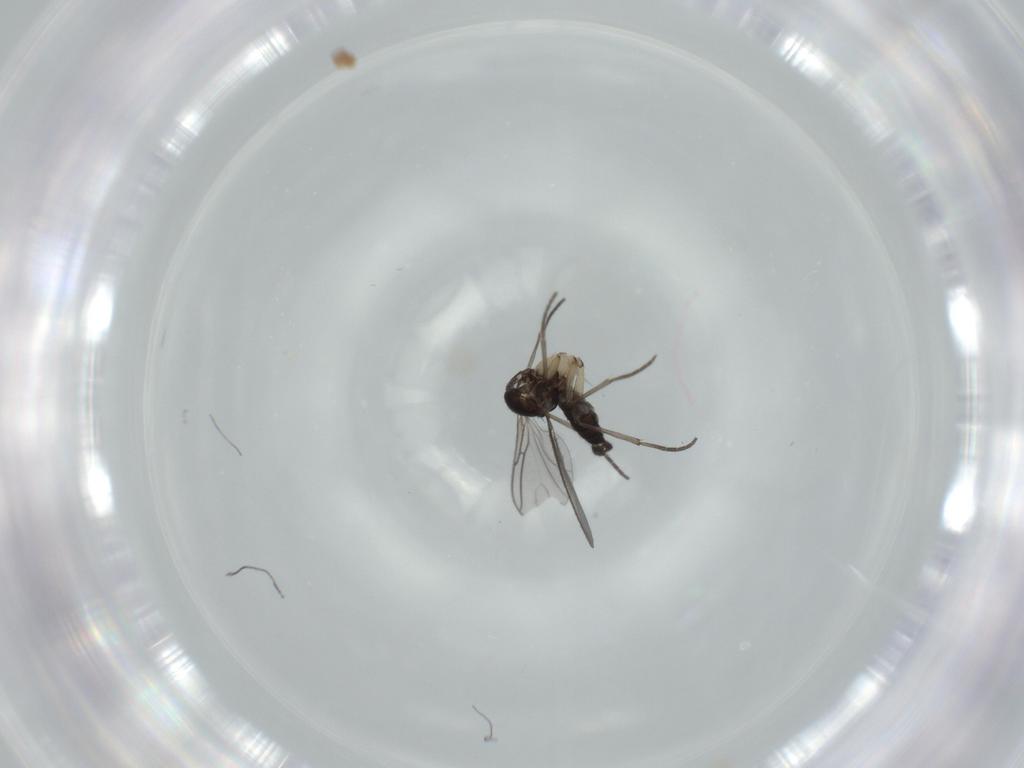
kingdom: Animalia
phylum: Arthropoda
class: Insecta
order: Diptera
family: Sciaridae
